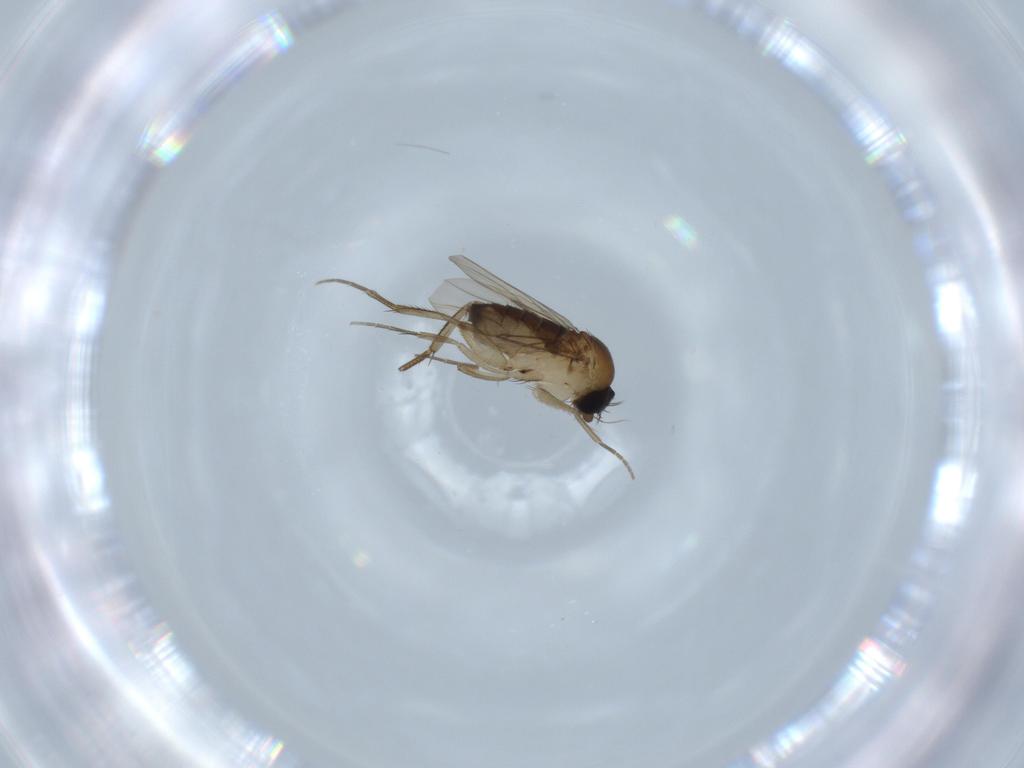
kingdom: Animalia
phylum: Arthropoda
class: Insecta
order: Diptera
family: Phoridae
